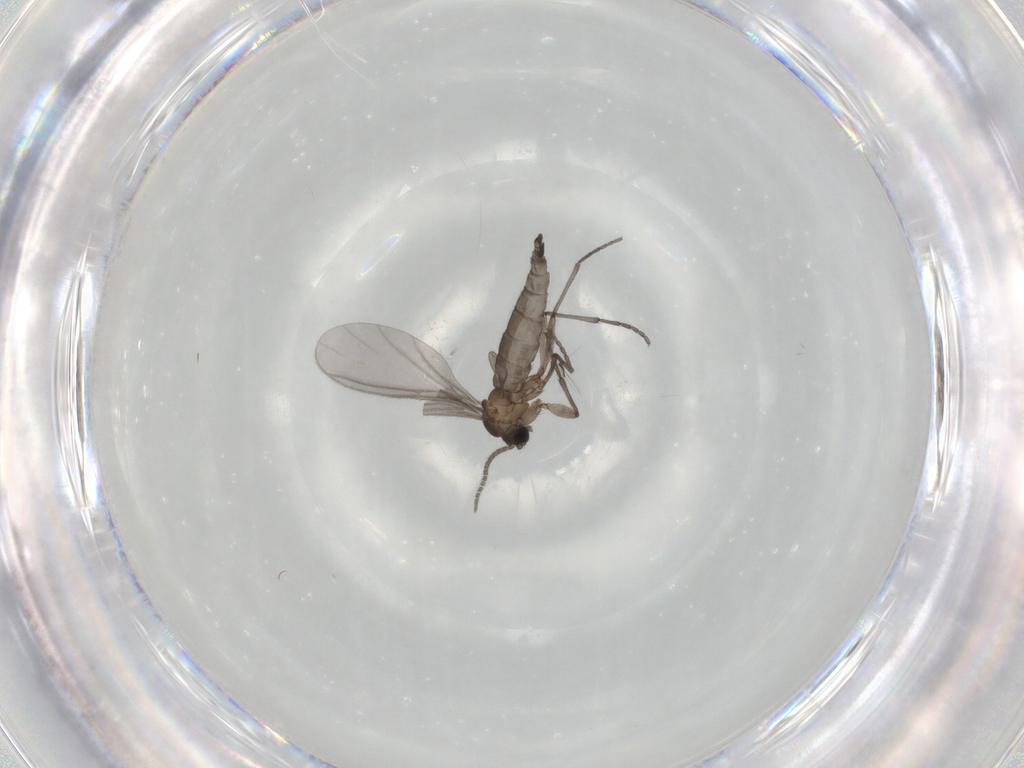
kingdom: Animalia
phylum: Arthropoda
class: Insecta
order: Diptera
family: Sciaridae
